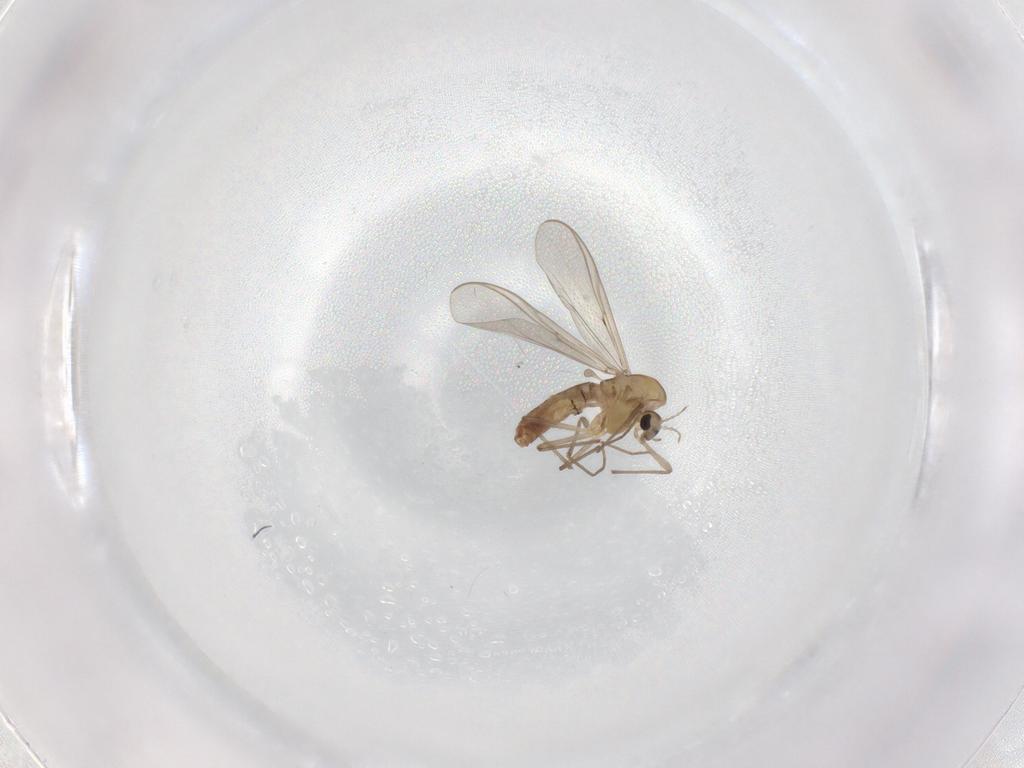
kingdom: Animalia
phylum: Arthropoda
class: Insecta
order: Diptera
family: Chironomidae
